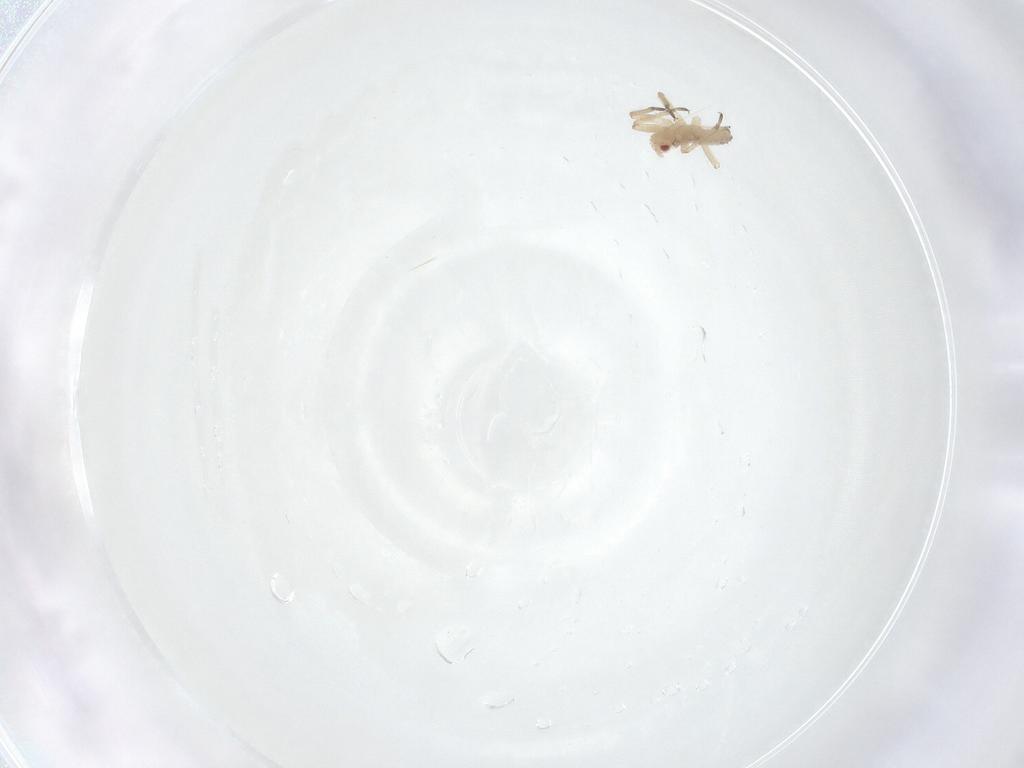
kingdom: Animalia
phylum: Arthropoda
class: Insecta
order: Hemiptera
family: Aphididae
